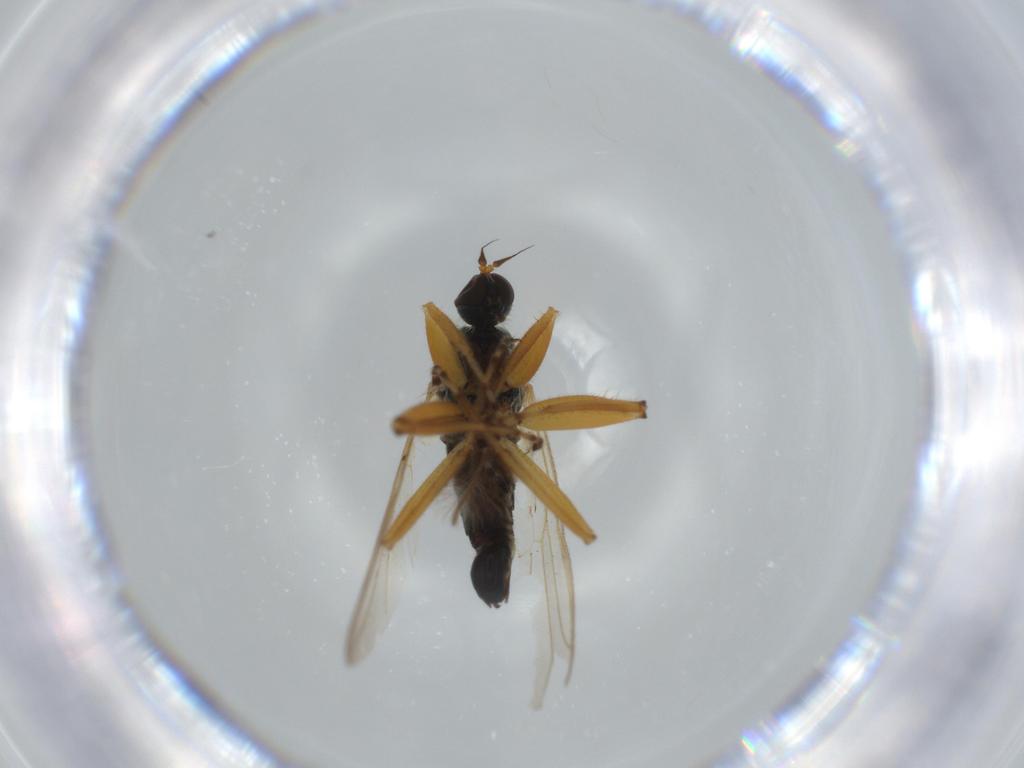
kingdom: Animalia
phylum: Arthropoda
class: Insecta
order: Diptera
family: Hybotidae
